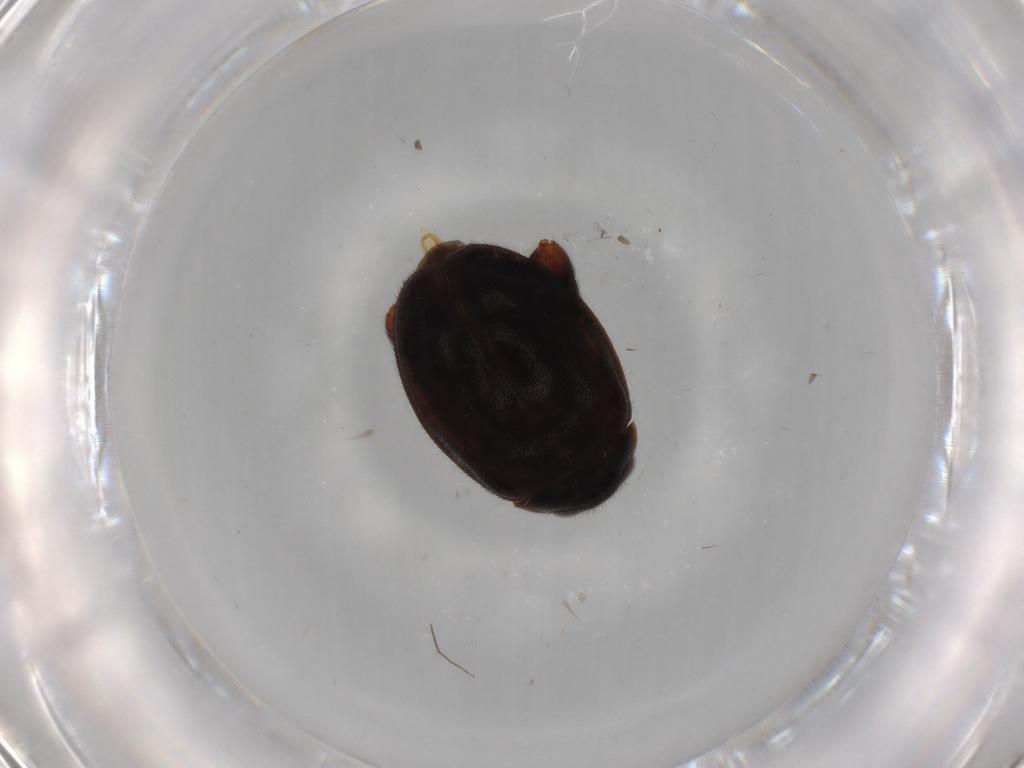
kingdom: Animalia
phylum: Arthropoda
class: Insecta
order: Coleoptera
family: Scirtidae
